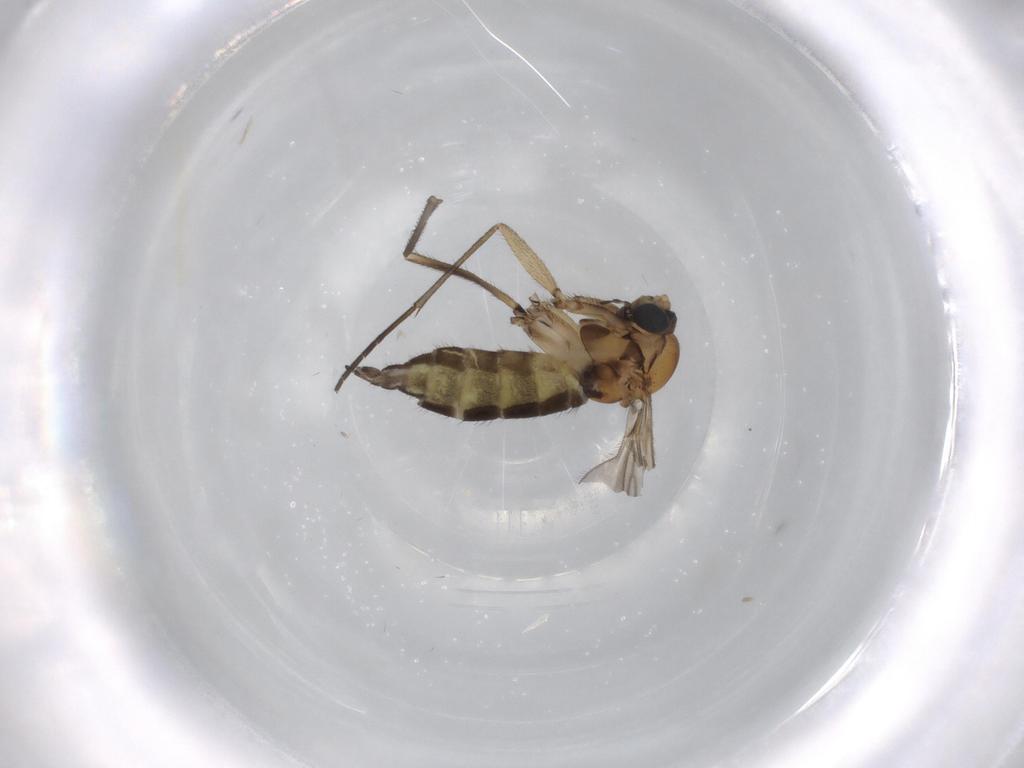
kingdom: Animalia
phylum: Arthropoda
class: Insecta
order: Diptera
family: Sciaridae
